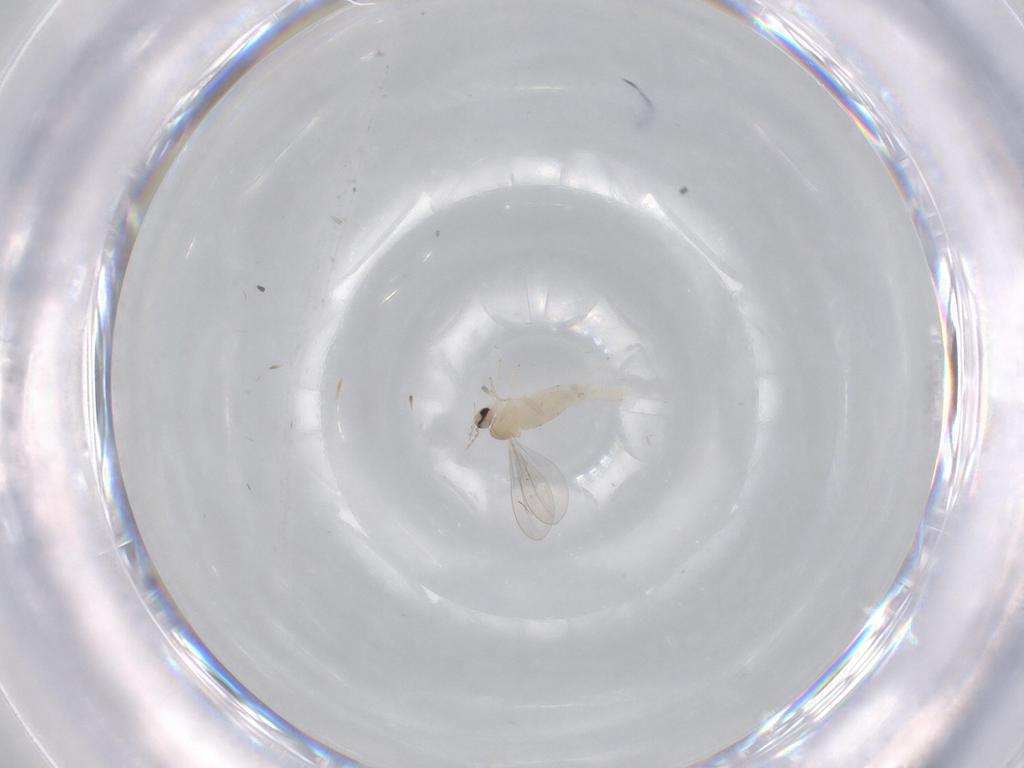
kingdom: Animalia
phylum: Arthropoda
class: Insecta
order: Diptera
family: Cecidomyiidae
